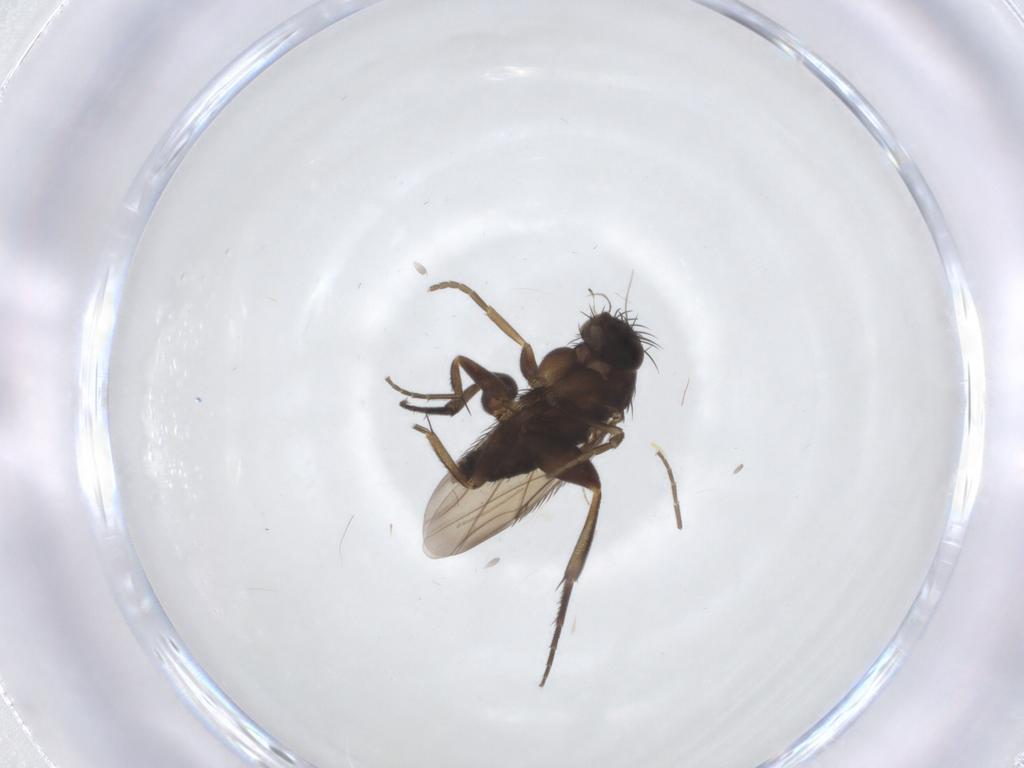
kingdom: Animalia
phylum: Arthropoda
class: Insecta
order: Diptera
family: Phoridae
